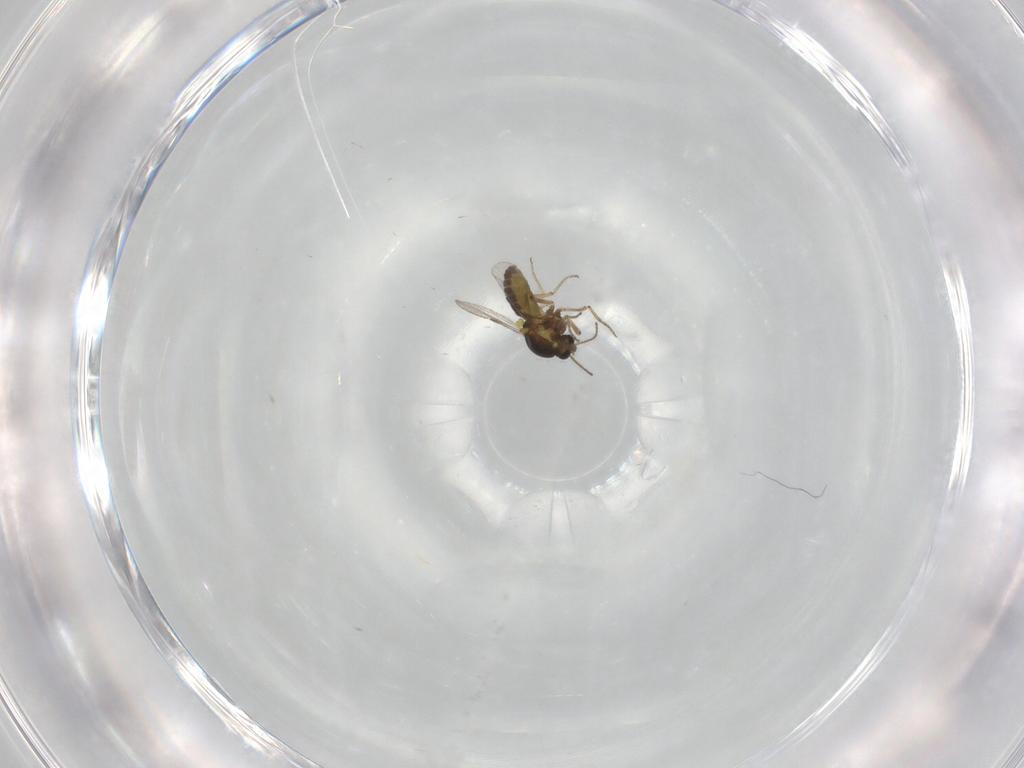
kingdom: Animalia
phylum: Arthropoda
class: Insecta
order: Diptera
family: Ceratopogonidae
